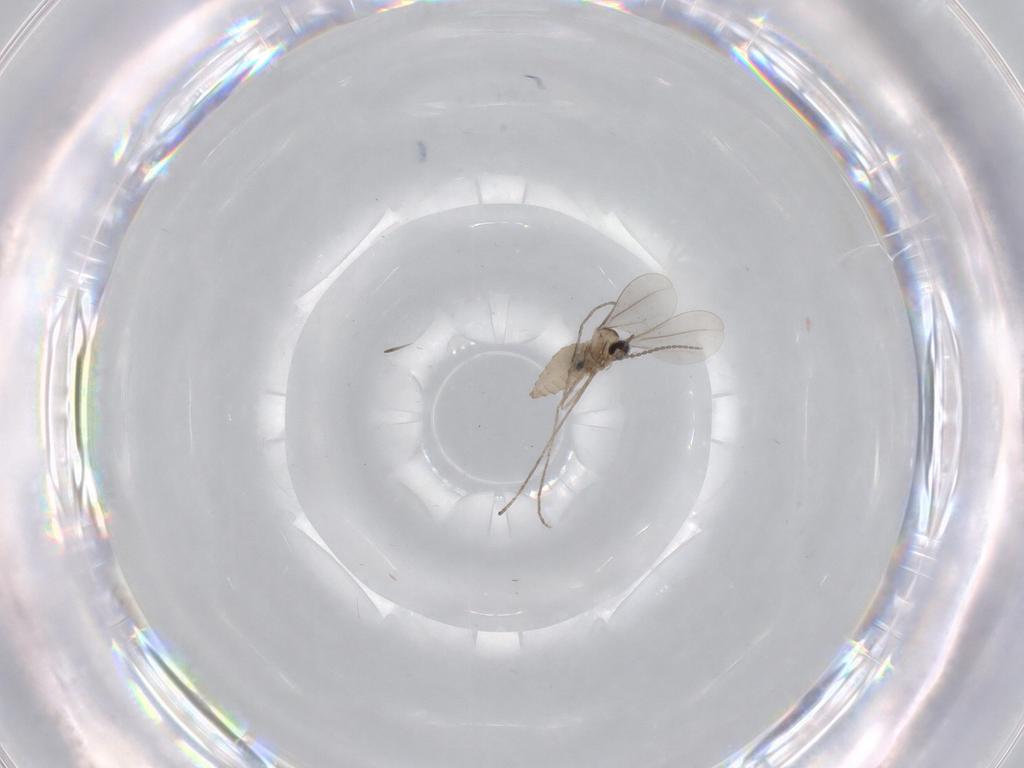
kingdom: Animalia
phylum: Arthropoda
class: Insecta
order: Diptera
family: Cecidomyiidae
